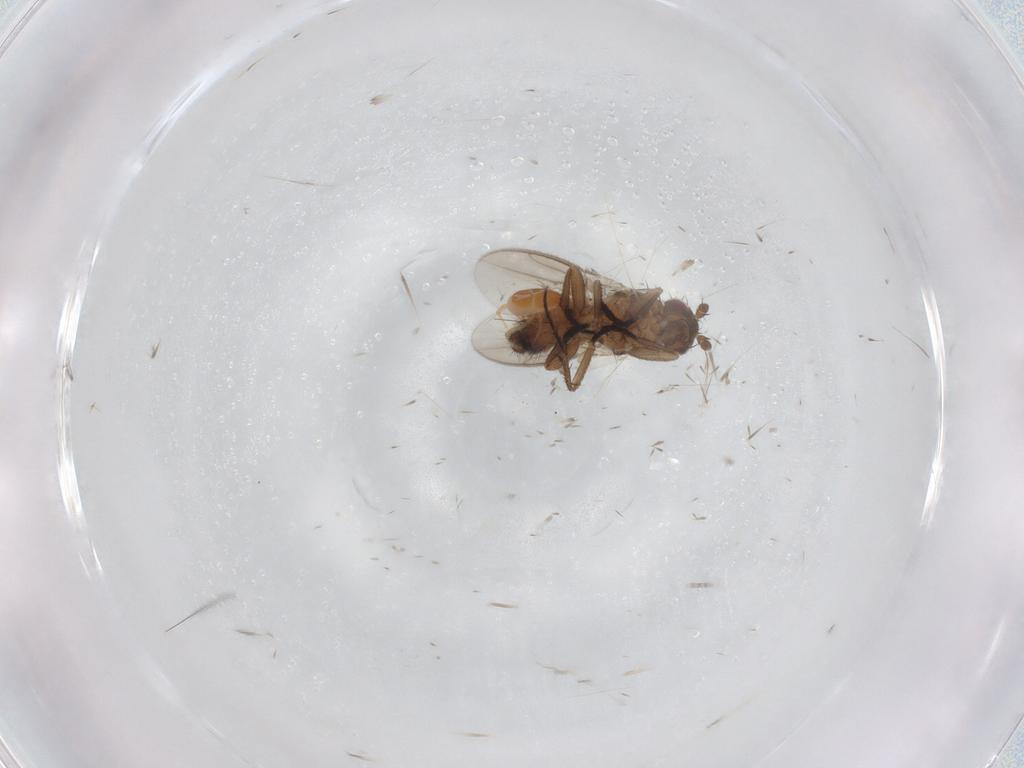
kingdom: Animalia
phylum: Arthropoda
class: Insecta
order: Diptera
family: Sphaeroceridae
